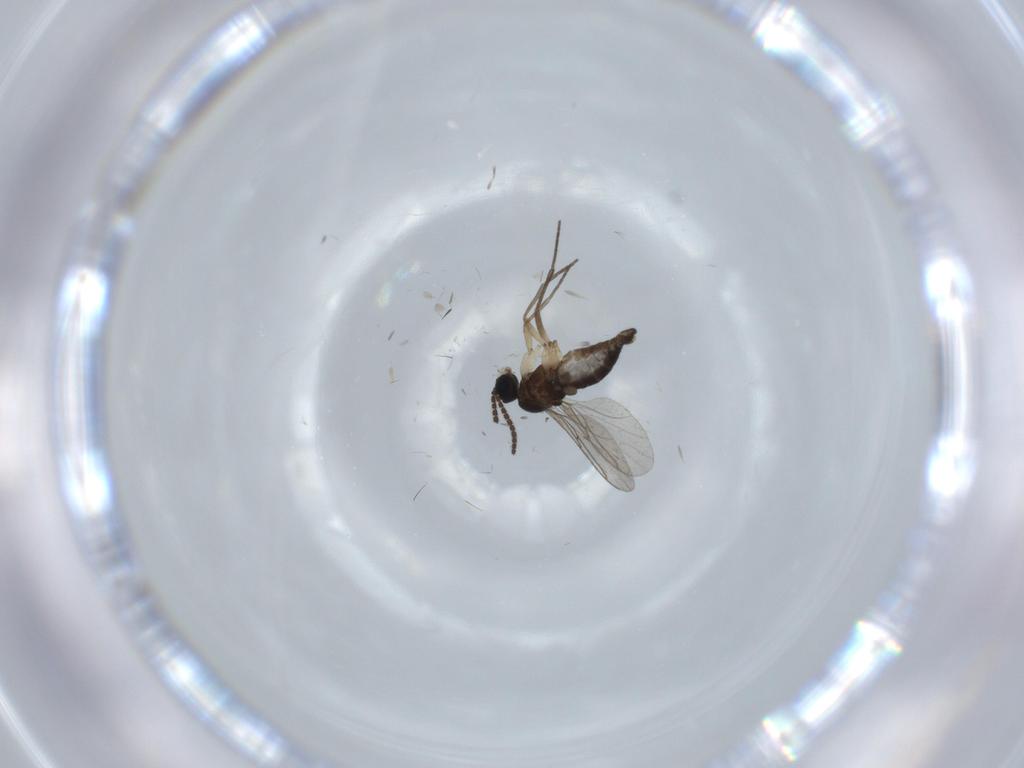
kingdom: Animalia
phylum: Arthropoda
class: Insecta
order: Diptera
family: Sciaridae
